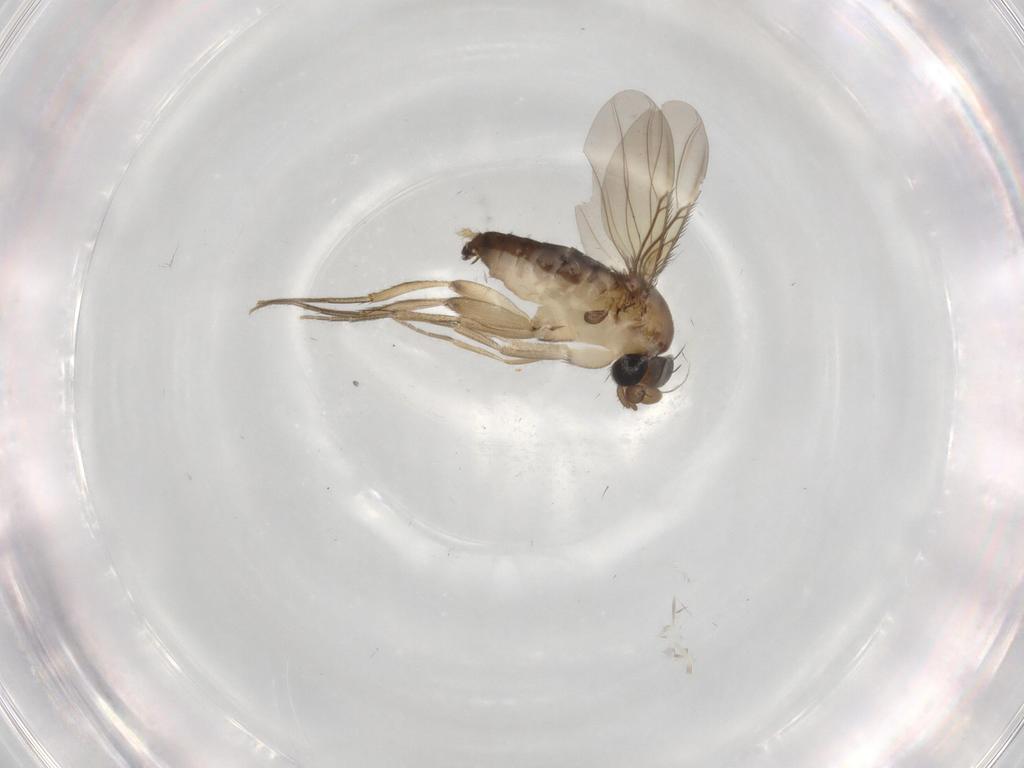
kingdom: Animalia
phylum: Arthropoda
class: Insecta
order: Diptera
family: Phoridae
